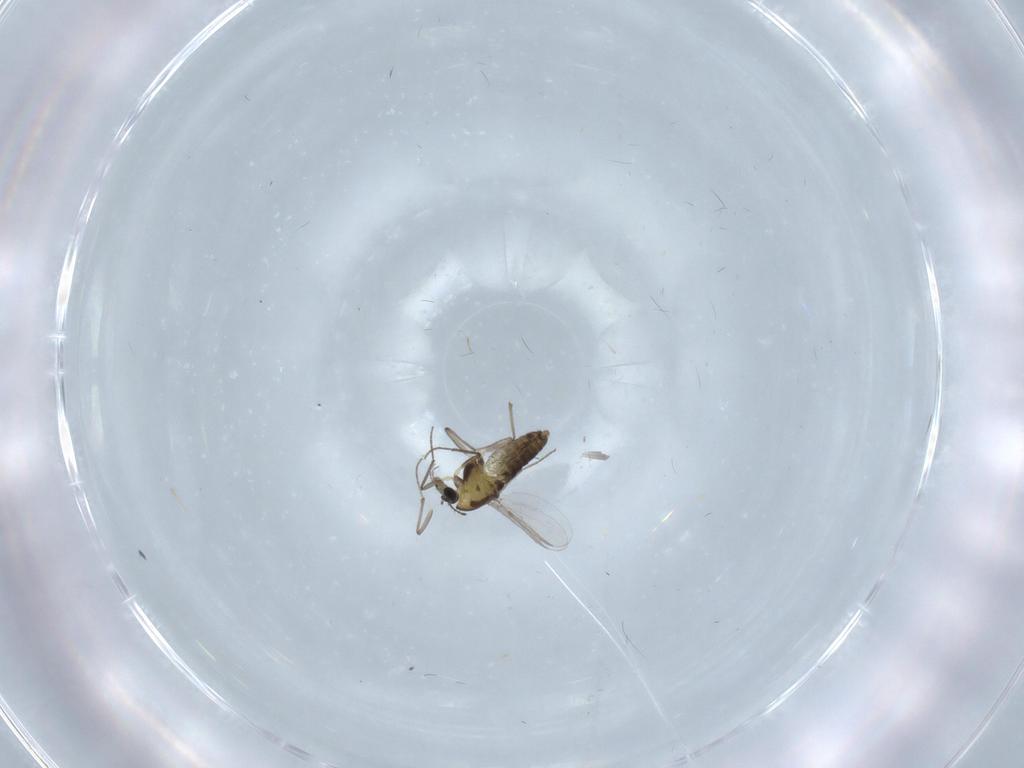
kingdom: Animalia
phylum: Arthropoda
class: Insecta
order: Diptera
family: Chironomidae
